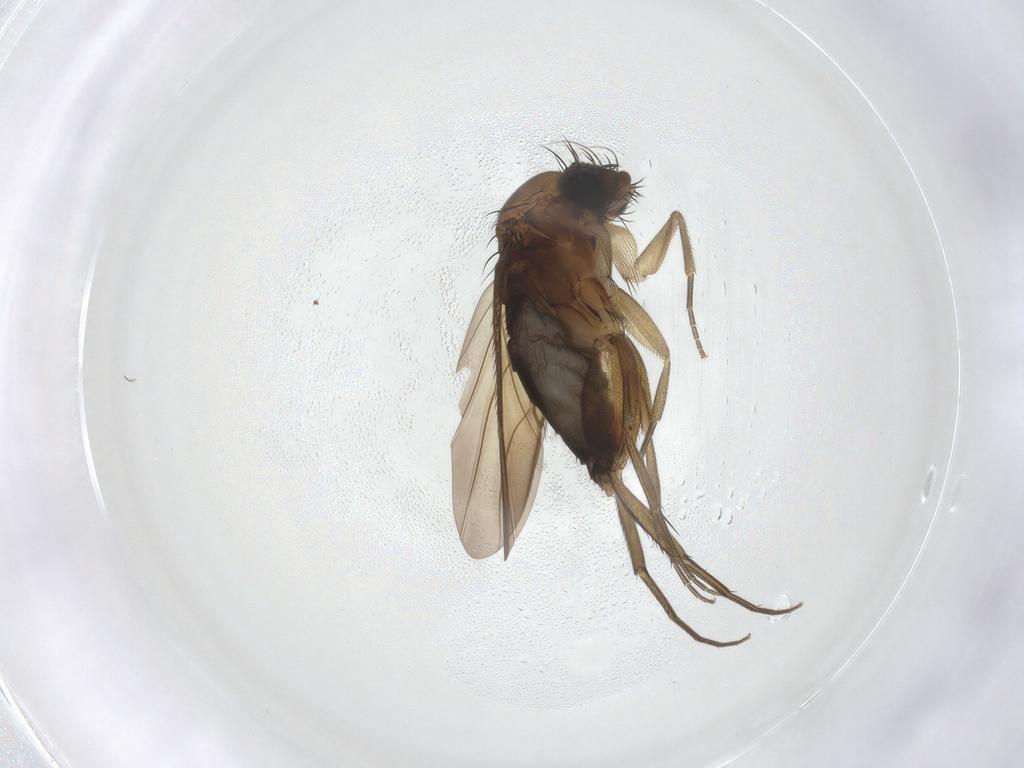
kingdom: Animalia
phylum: Arthropoda
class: Insecta
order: Diptera
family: Phoridae
